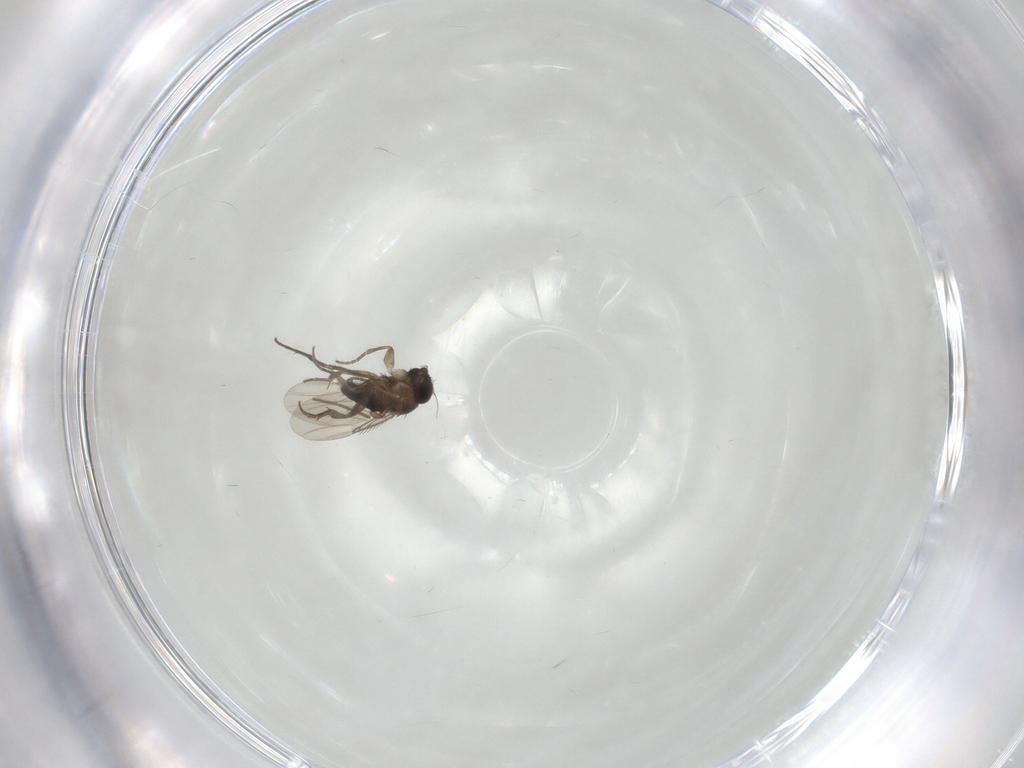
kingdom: Animalia
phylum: Arthropoda
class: Insecta
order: Diptera
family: Phoridae
